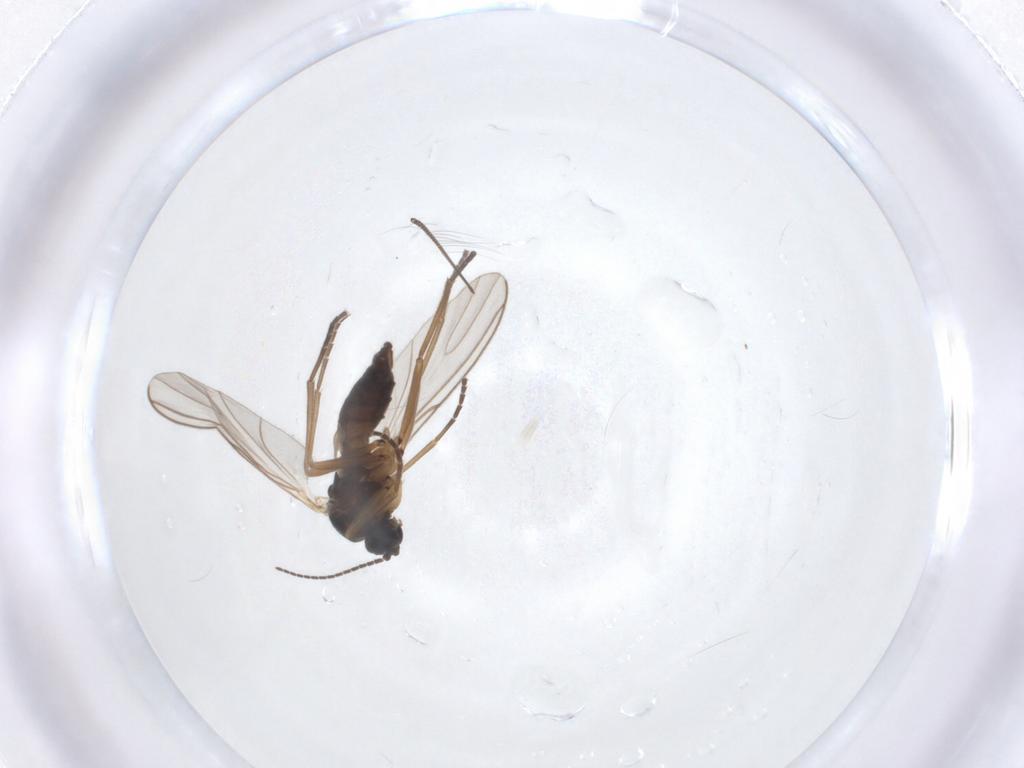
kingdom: Animalia
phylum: Arthropoda
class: Insecta
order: Diptera
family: Sciaridae
